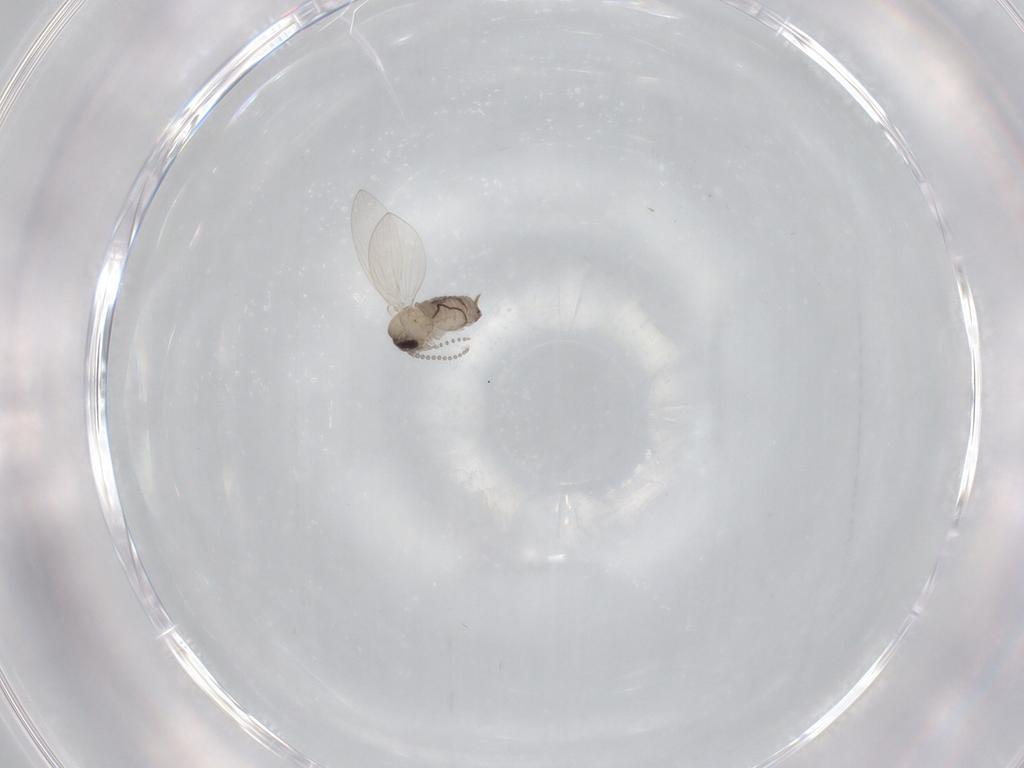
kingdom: Animalia
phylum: Arthropoda
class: Insecta
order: Diptera
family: Psychodidae
